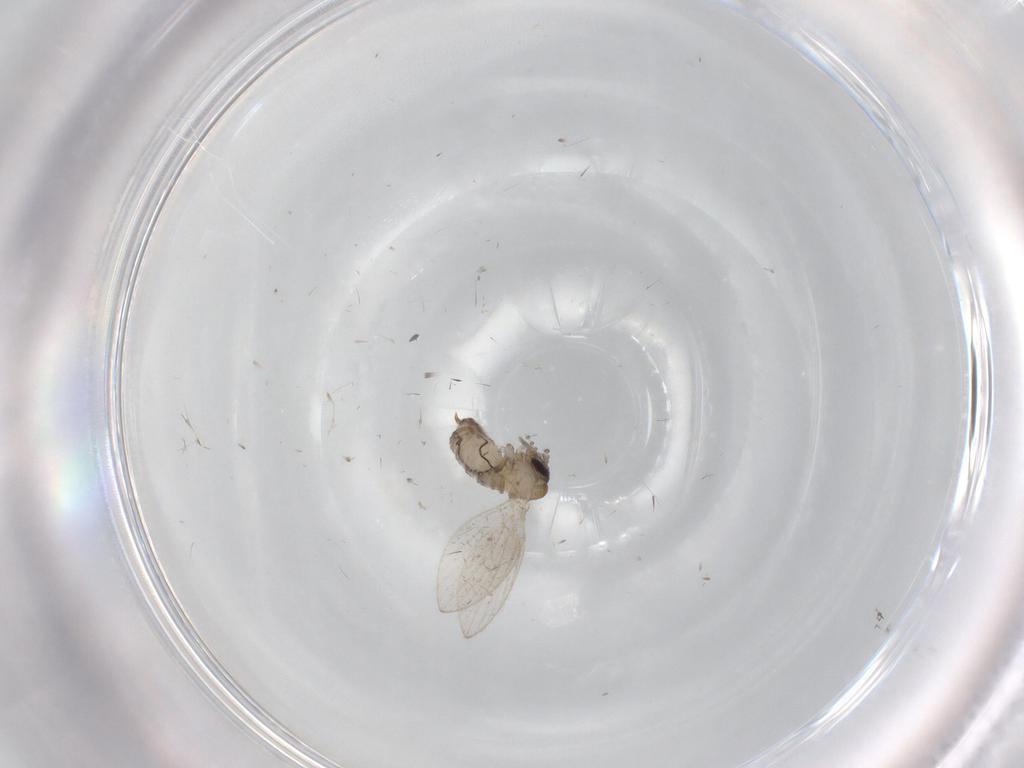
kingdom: Animalia
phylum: Arthropoda
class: Insecta
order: Diptera
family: Psychodidae
